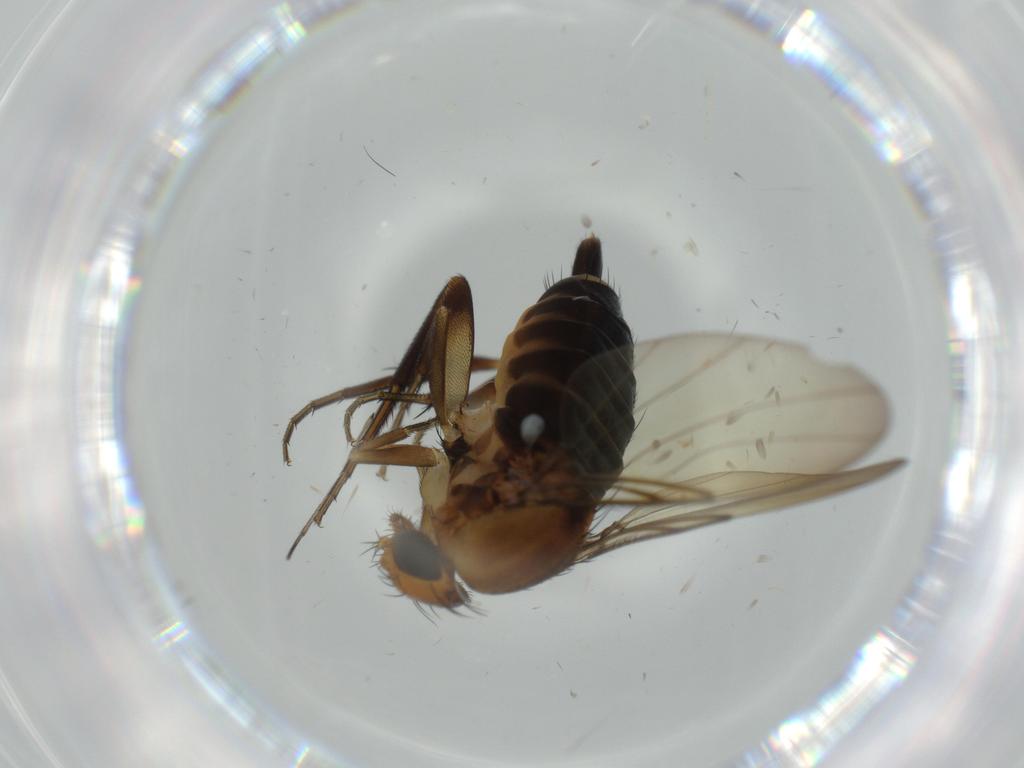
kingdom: Animalia
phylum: Arthropoda
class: Insecta
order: Diptera
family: Phoridae
